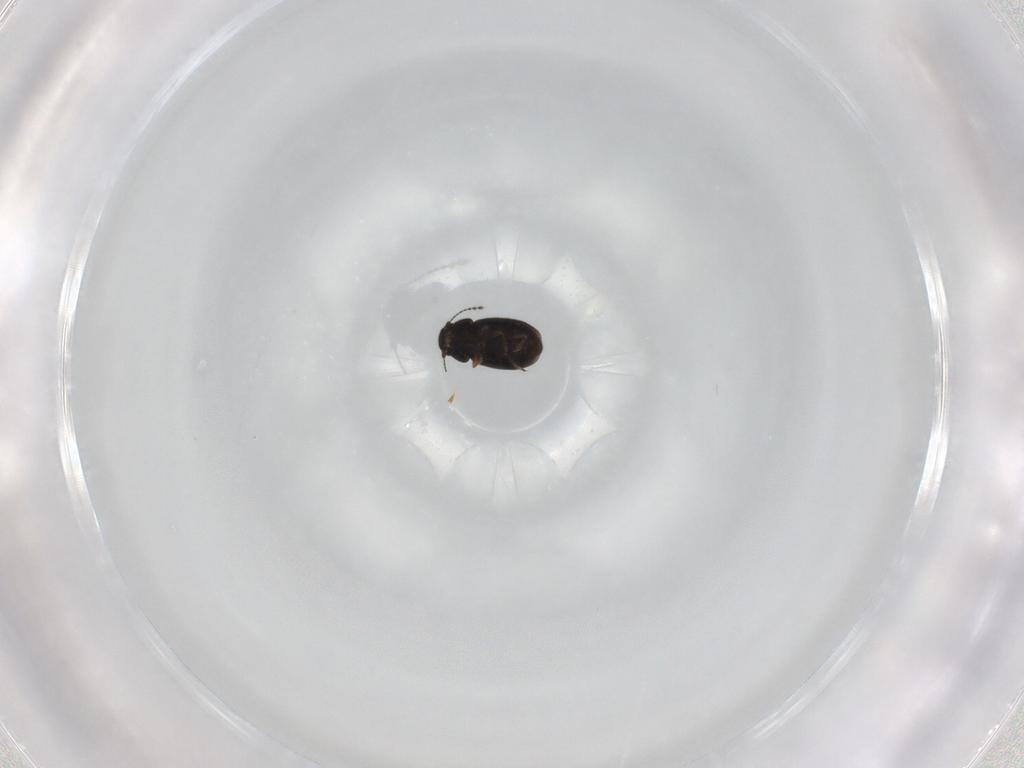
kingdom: Animalia
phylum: Arthropoda
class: Insecta
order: Coleoptera
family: Ptiliidae
